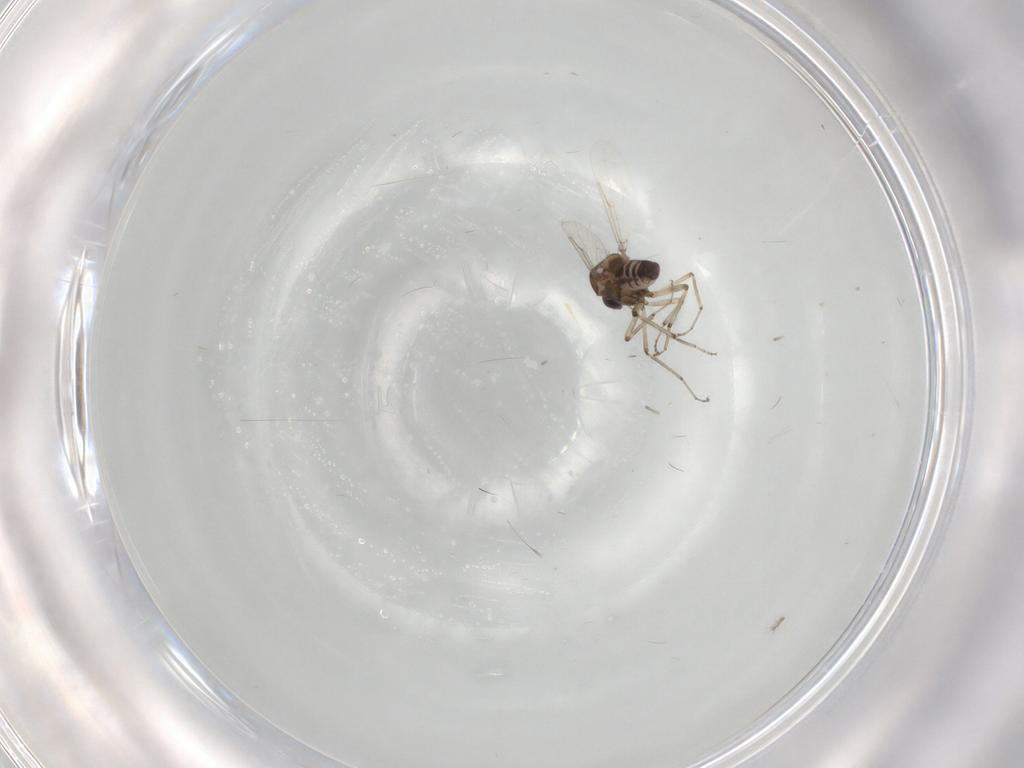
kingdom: Animalia
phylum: Arthropoda
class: Insecta
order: Diptera
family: Ceratopogonidae
